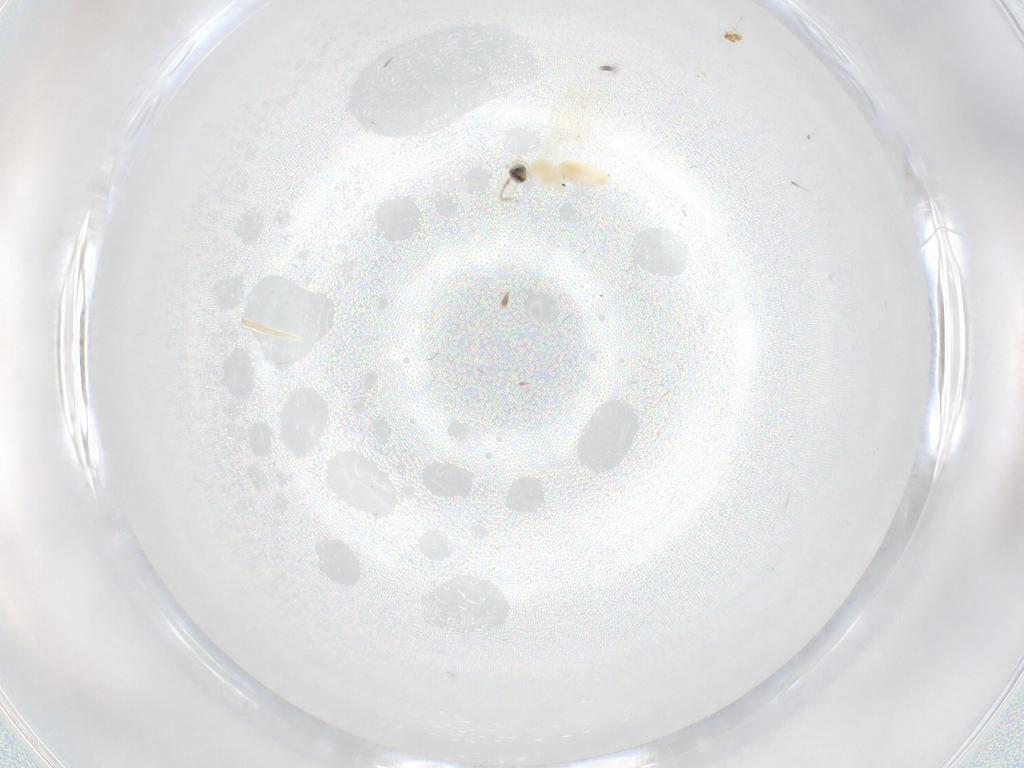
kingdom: Animalia
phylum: Arthropoda
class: Insecta
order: Diptera
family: Cecidomyiidae
